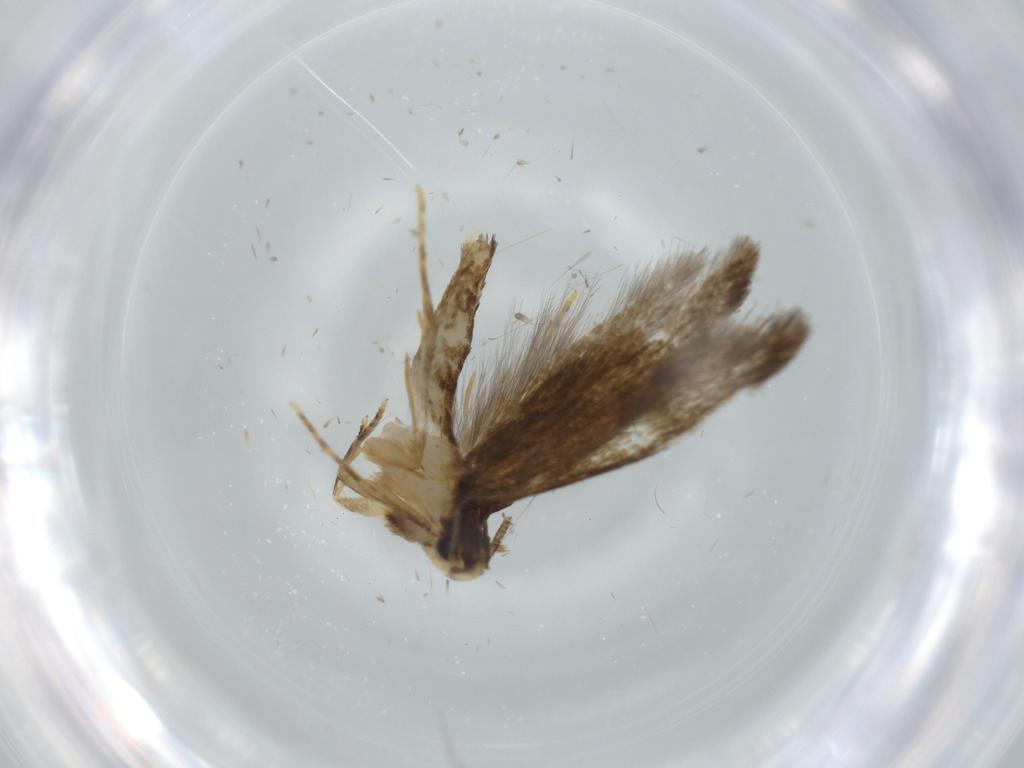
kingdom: Animalia
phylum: Arthropoda
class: Insecta
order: Lepidoptera
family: Tineidae
